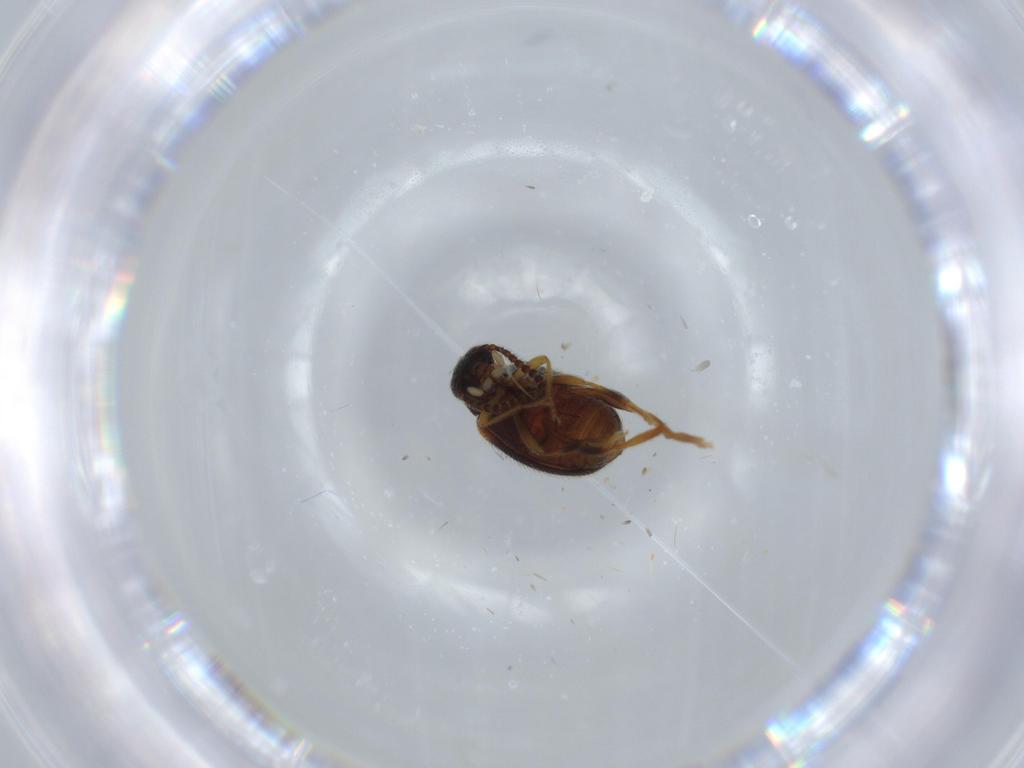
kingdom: Animalia
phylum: Arthropoda
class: Insecta
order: Coleoptera
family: Aderidae
